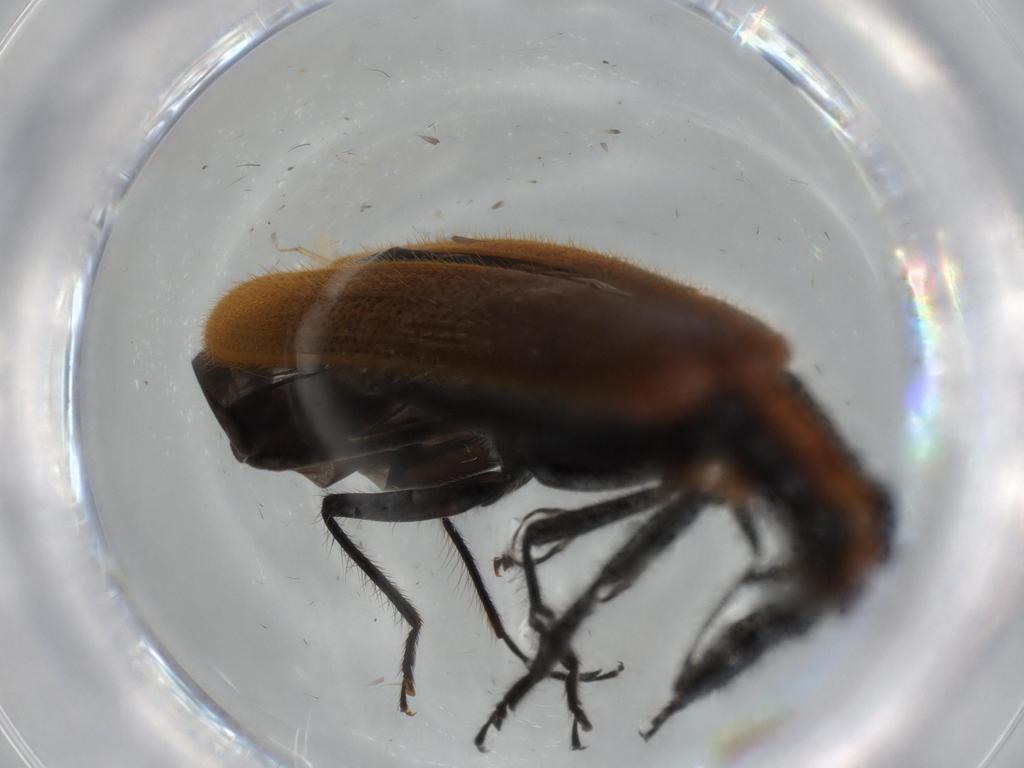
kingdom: Animalia
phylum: Arthropoda
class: Insecta
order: Coleoptera
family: Cleridae
